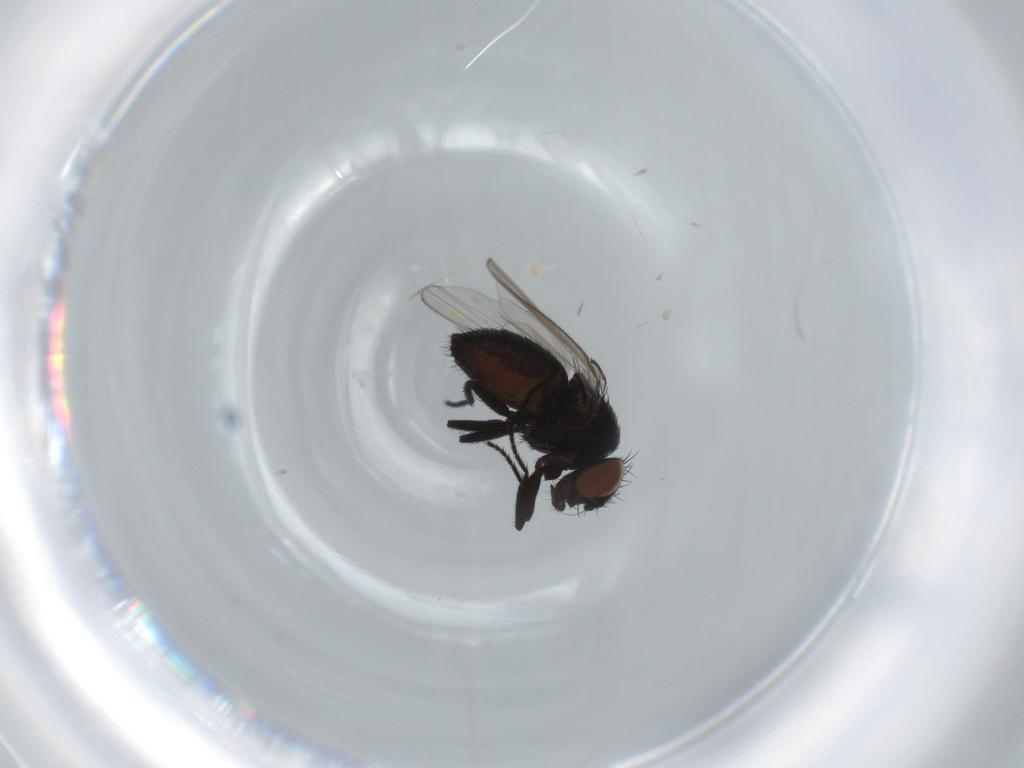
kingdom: Animalia
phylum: Arthropoda
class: Insecta
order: Diptera
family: Milichiidae
